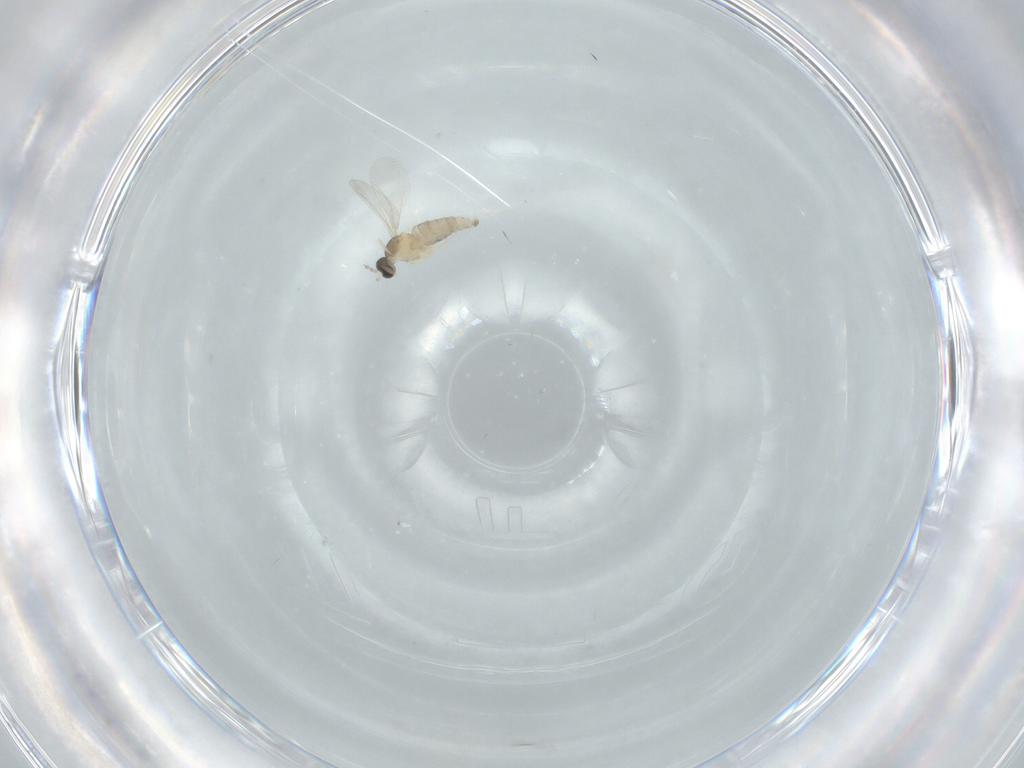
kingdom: Animalia
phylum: Arthropoda
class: Insecta
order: Diptera
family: Cecidomyiidae
